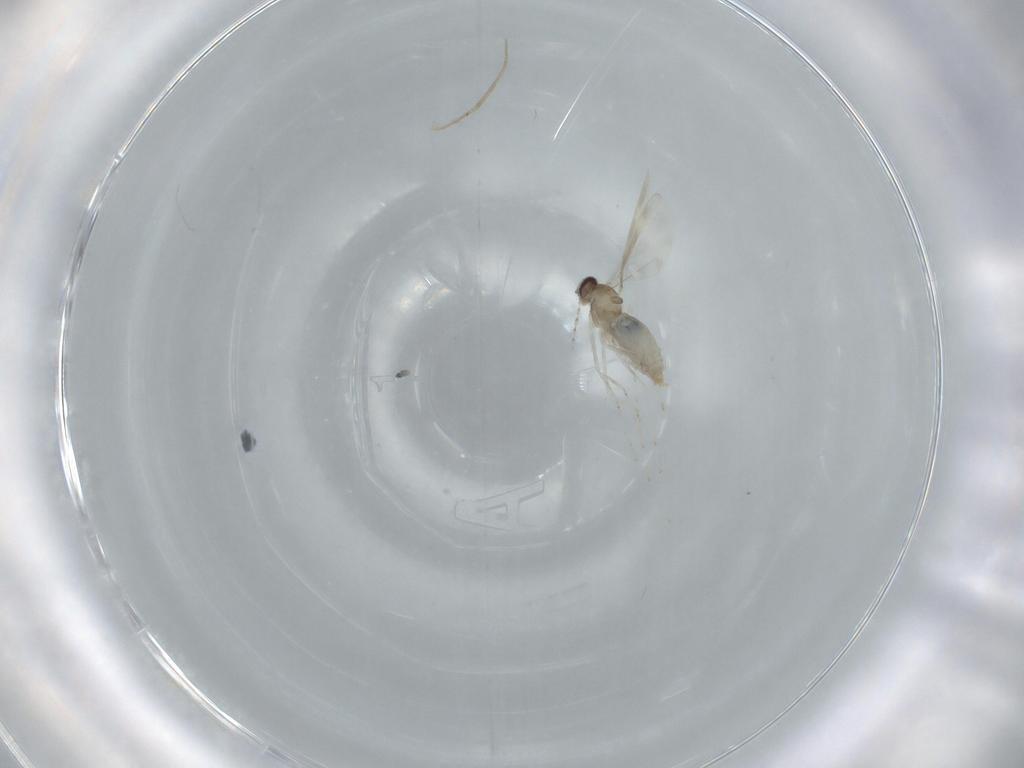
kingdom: Animalia
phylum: Arthropoda
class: Insecta
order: Diptera
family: Cecidomyiidae
